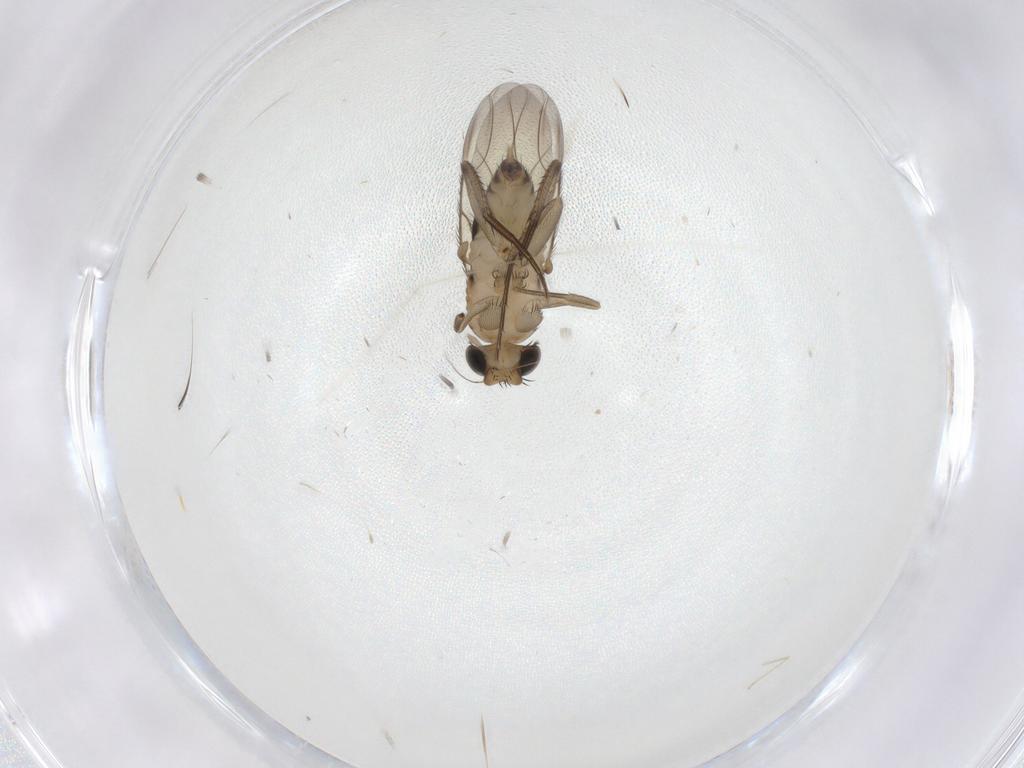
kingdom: Animalia
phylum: Arthropoda
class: Insecta
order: Diptera
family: Phoridae
